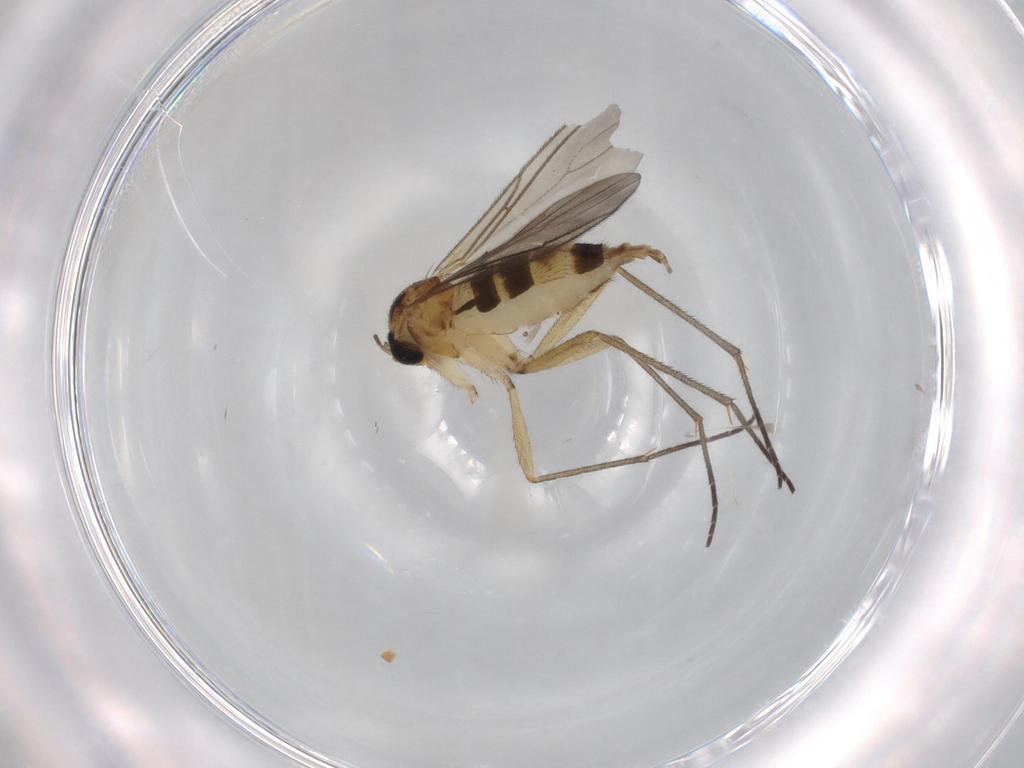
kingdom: Animalia
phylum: Arthropoda
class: Insecta
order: Diptera
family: Ceratopogonidae
